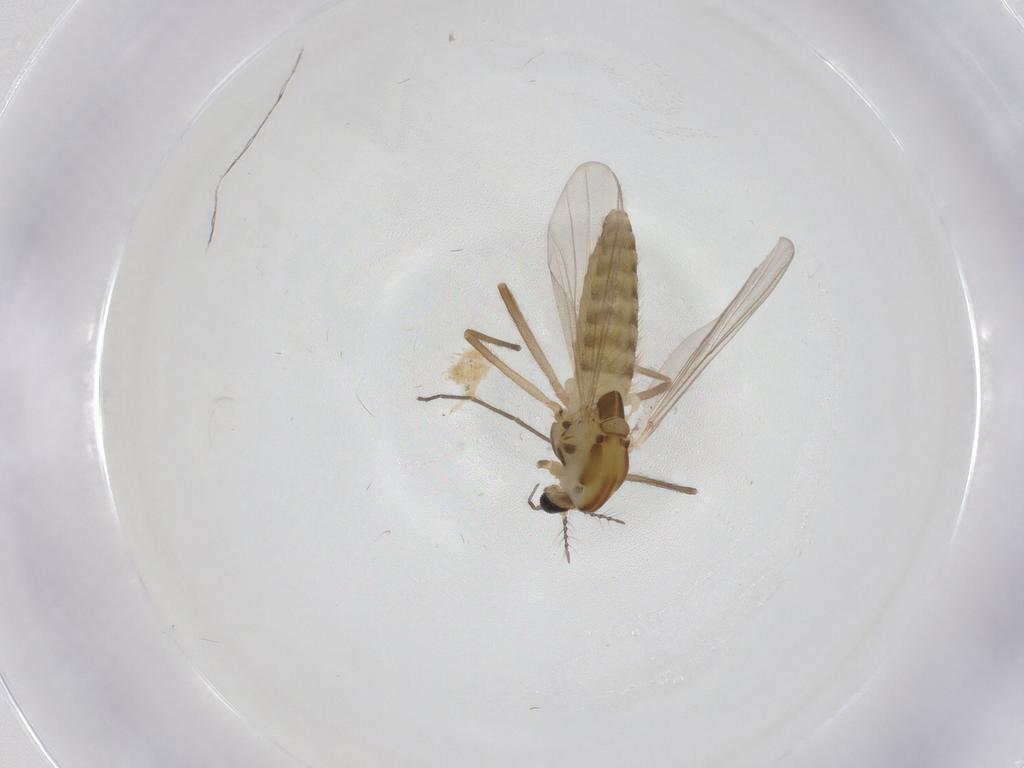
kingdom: Animalia
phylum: Arthropoda
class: Insecta
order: Diptera
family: Chironomidae
